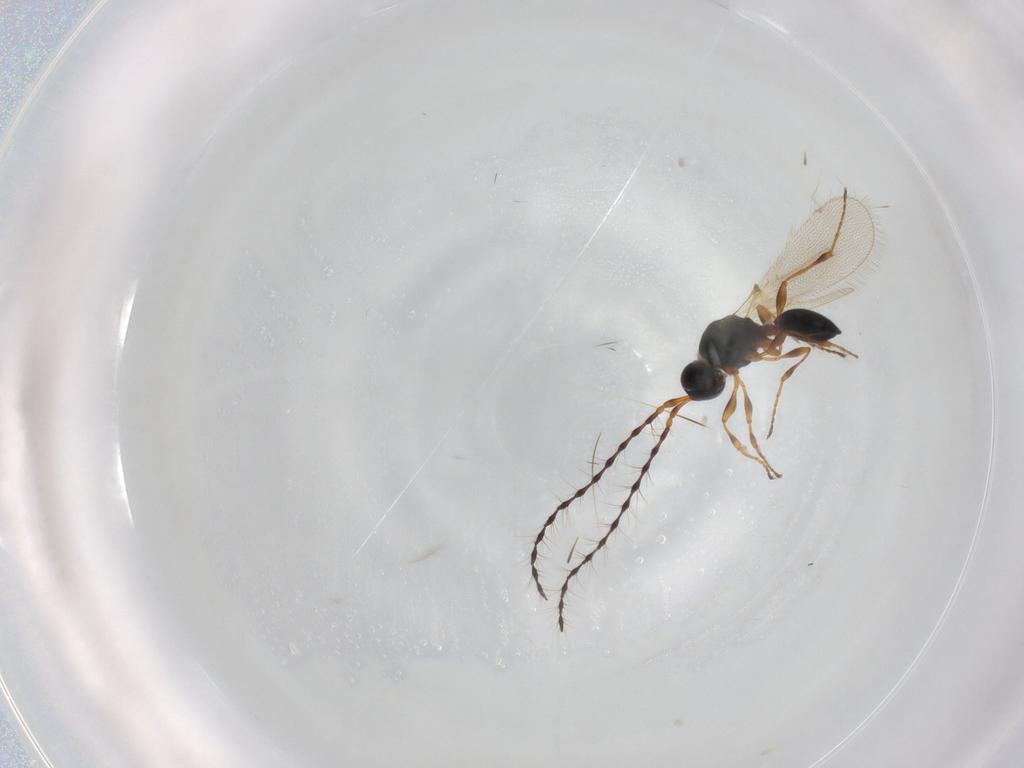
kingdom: Animalia
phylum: Arthropoda
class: Insecta
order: Hymenoptera
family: Diapriidae
